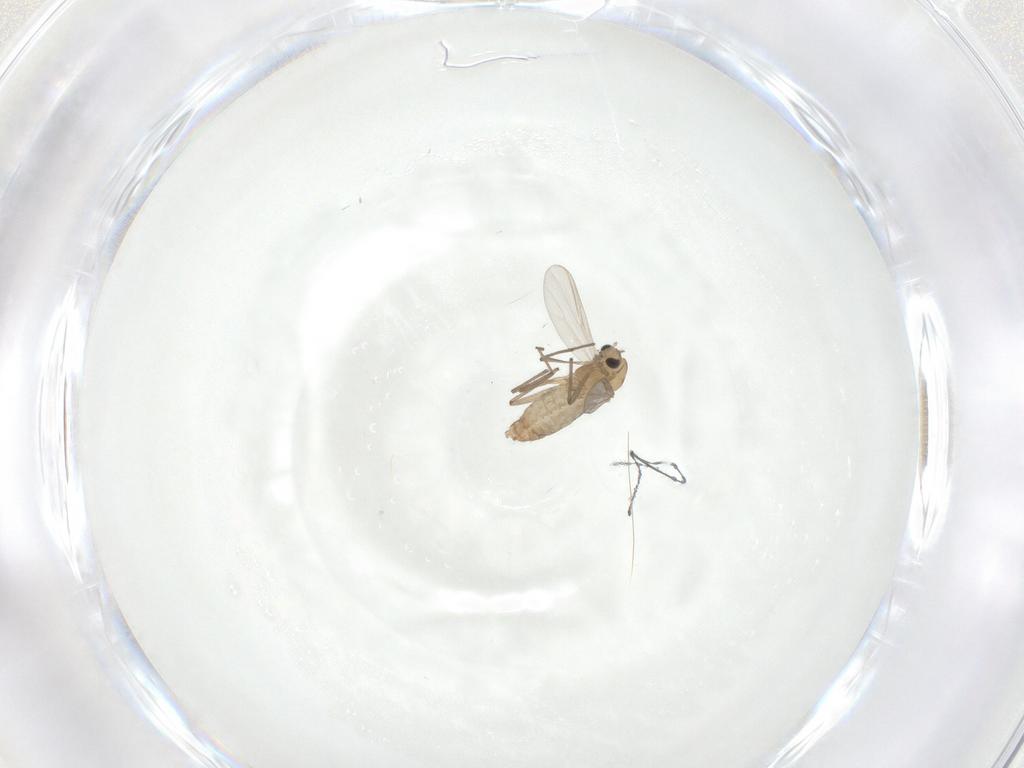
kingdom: Animalia
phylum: Arthropoda
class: Insecta
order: Diptera
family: Chironomidae
